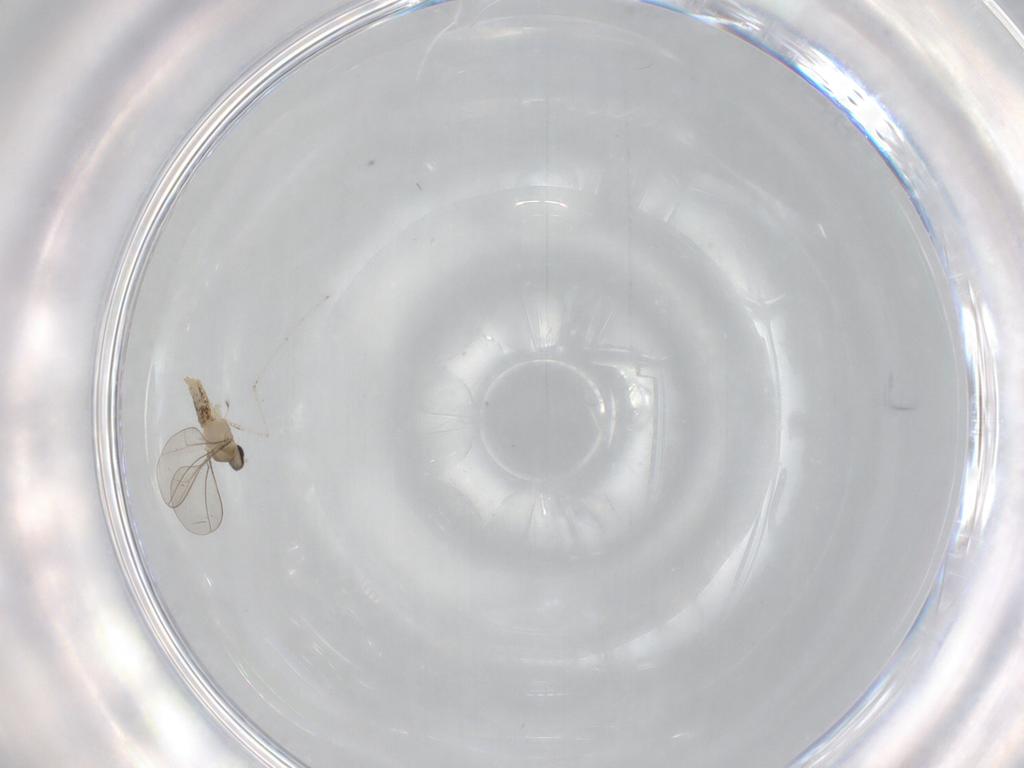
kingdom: Animalia
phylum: Arthropoda
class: Insecta
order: Diptera
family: Cecidomyiidae
